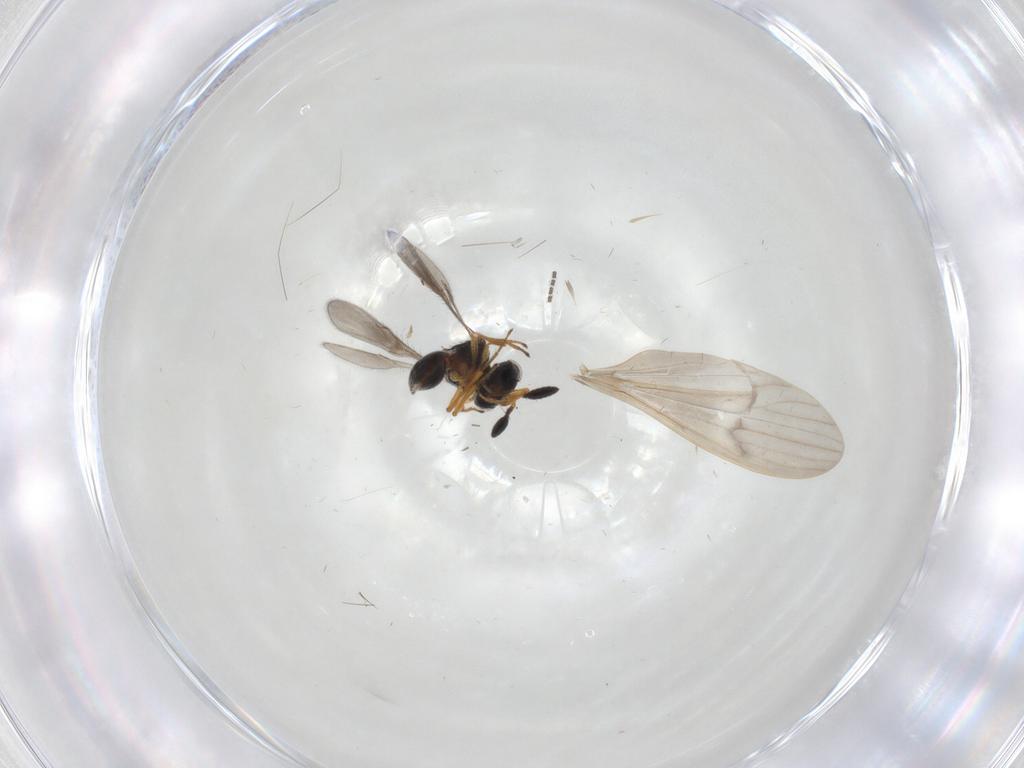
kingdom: Animalia
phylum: Arthropoda
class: Insecta
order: Hymenoptera
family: Scelionidae
